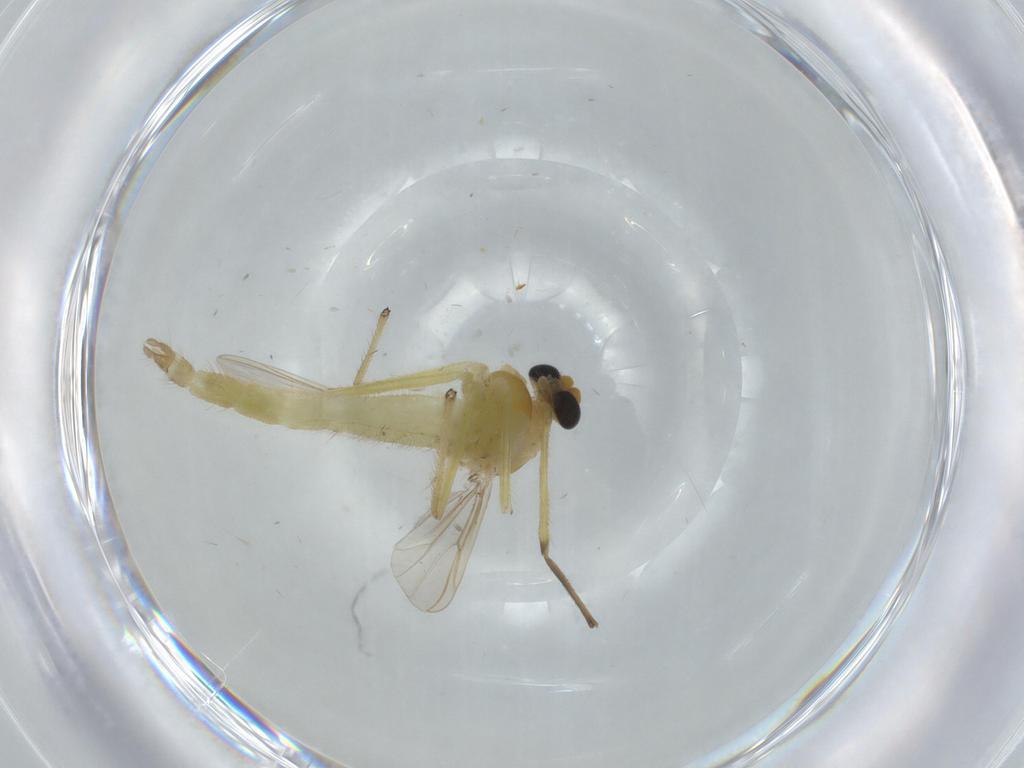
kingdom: Animalia
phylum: Arthropoda
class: Insecta
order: Diptera
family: Chironomidae
